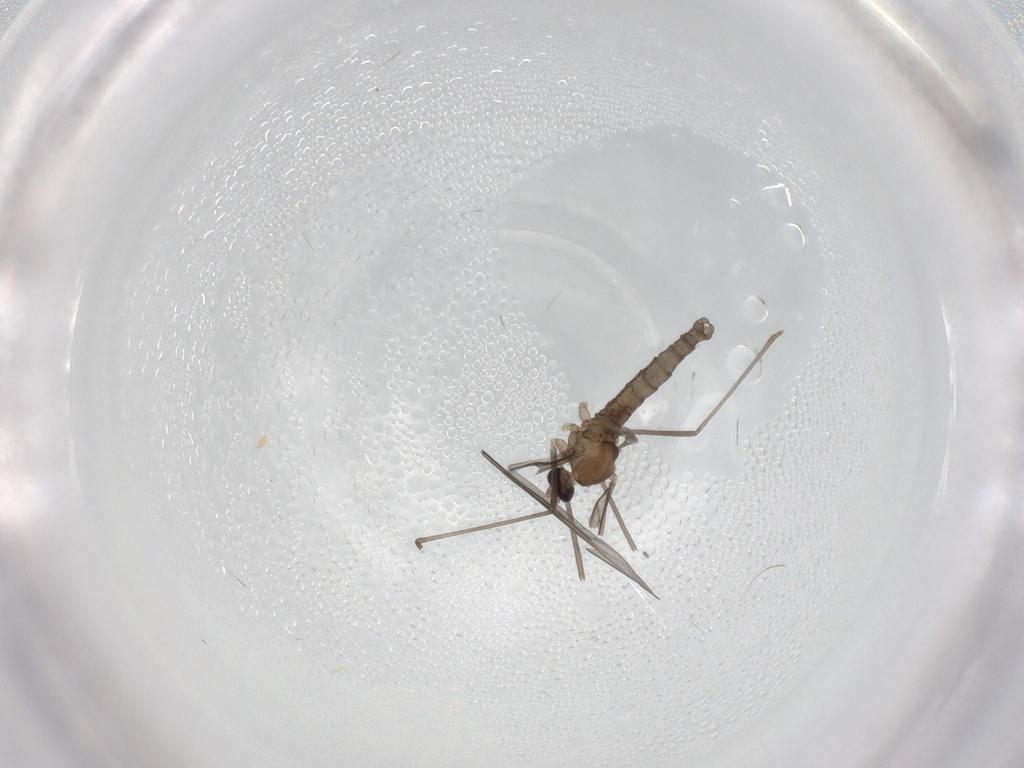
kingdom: Animalia
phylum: Arthropoda
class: Insecta
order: Diptera
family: Cecidomyiidae
